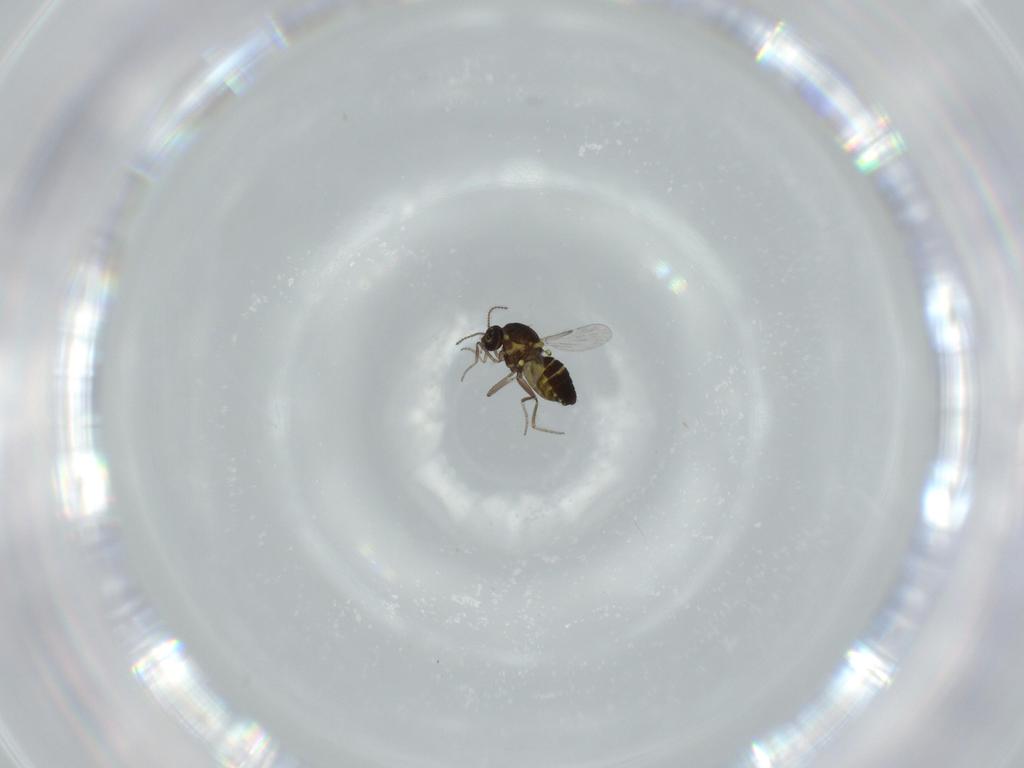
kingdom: Animalia
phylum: Arthropoda
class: Insecta
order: Diptera
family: Ceratopogonidae
